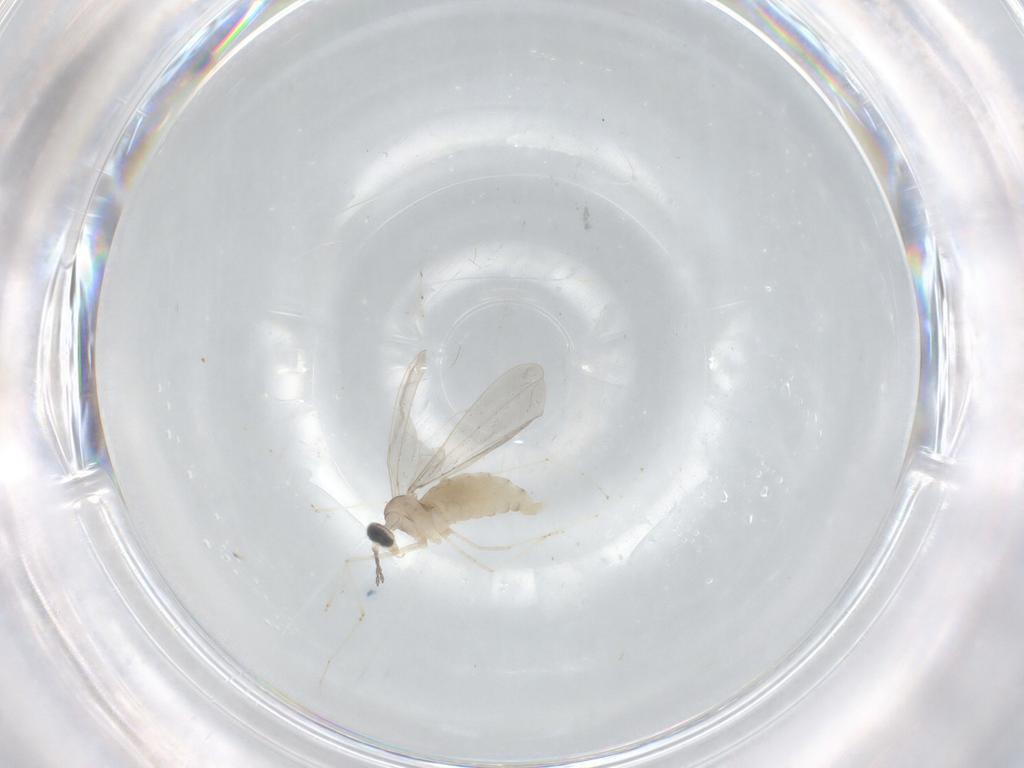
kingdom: Animalia
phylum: Arthropoda
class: Insecta
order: Diptera
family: Cecidomyiidae
